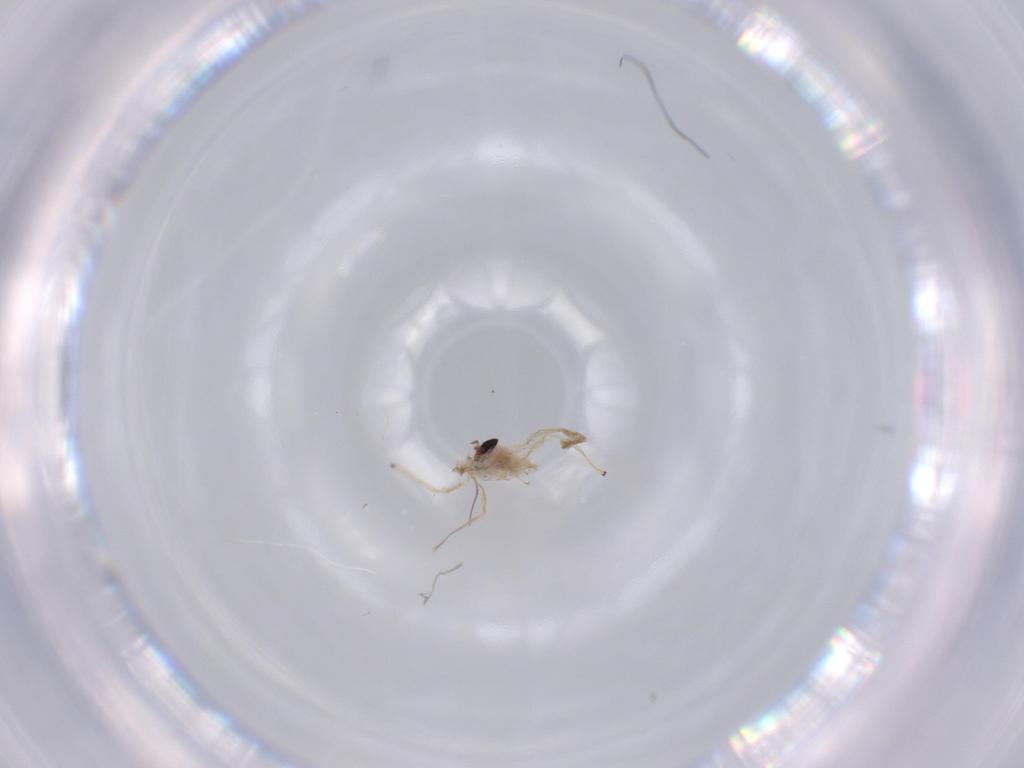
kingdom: Animalia
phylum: Arthropoda
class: Insecta
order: Diptera
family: Chironomidae
